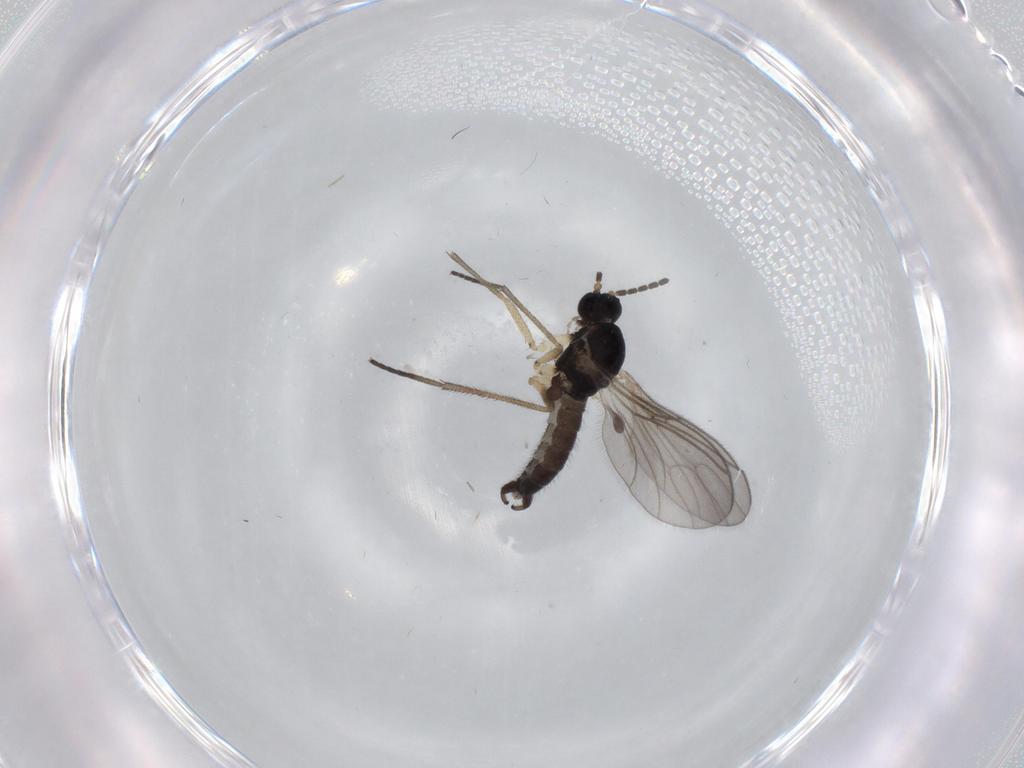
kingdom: Animalia
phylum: Arthropoda
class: Insecta
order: Diptera
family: Sciaridae
